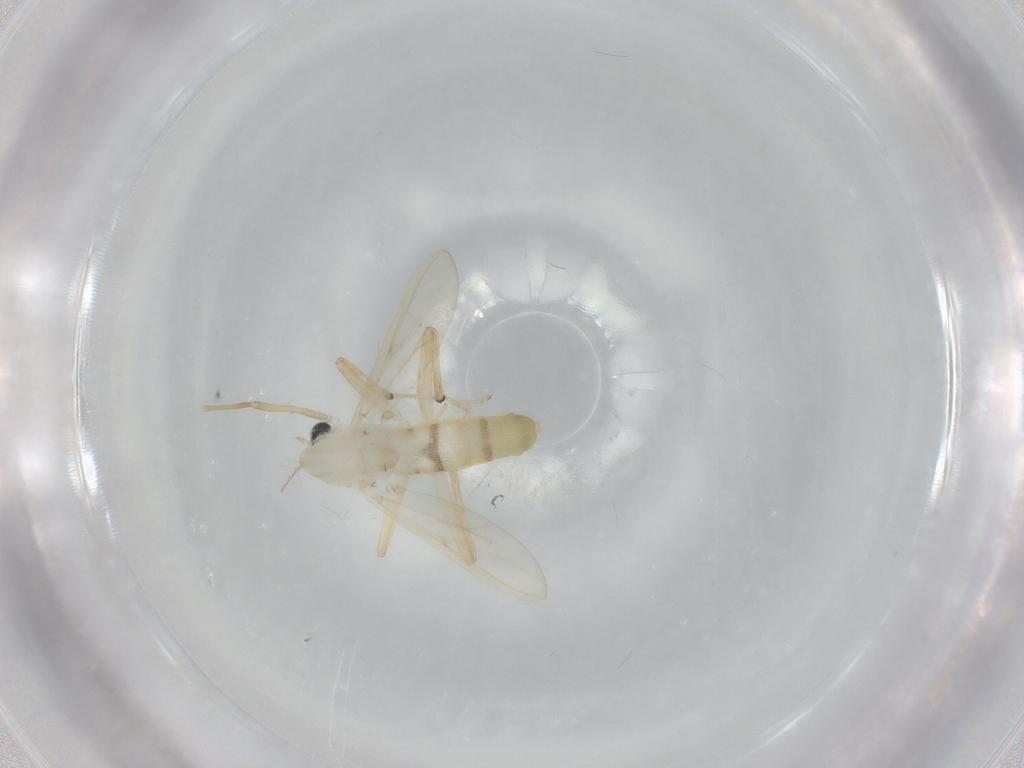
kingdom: Animalia
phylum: Arthropoda
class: Insecta
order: Diptera
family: Chironomidae
